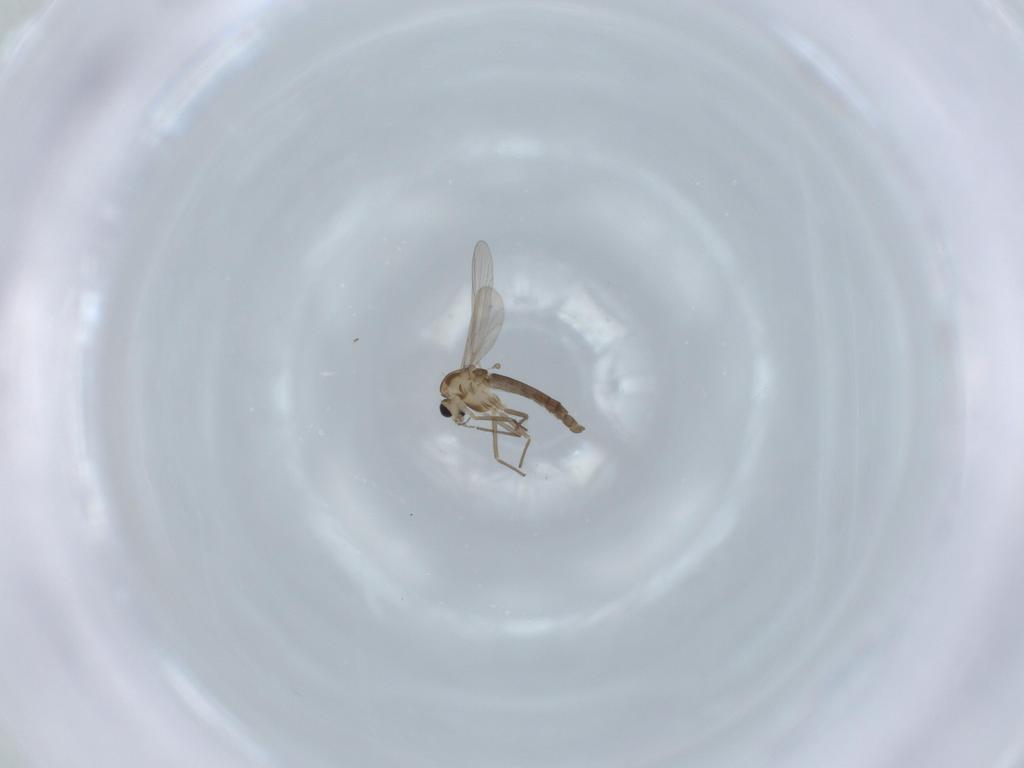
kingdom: Animalia
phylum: Arthropoda
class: Insecta
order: Diptera
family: Chironomidae
